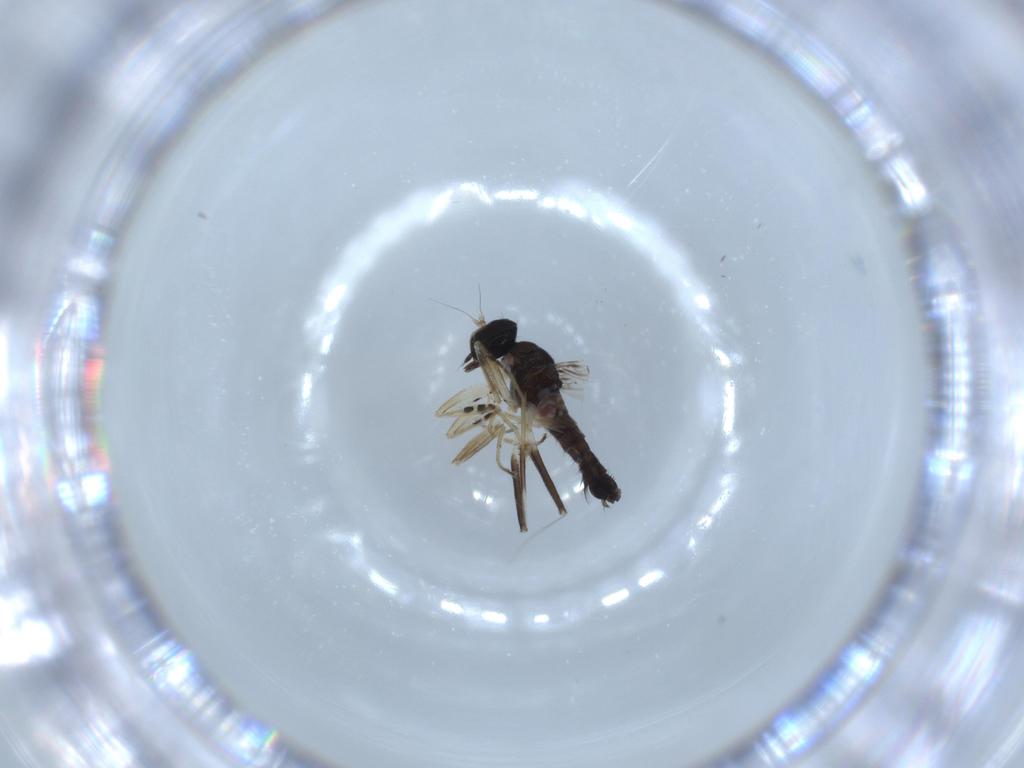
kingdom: Animalia
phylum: Arthropoda
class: Insecta
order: Diptera
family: Hybotidae
